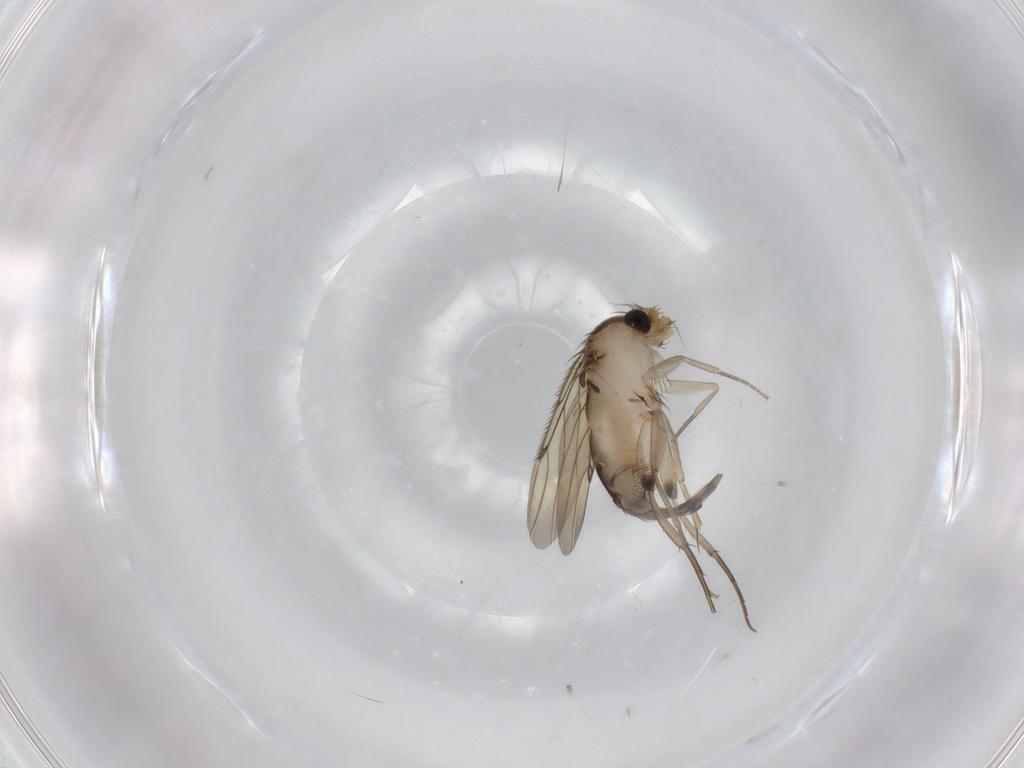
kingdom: Animalia
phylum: Arthropoda
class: Insecta
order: Diptera
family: Phoridae
